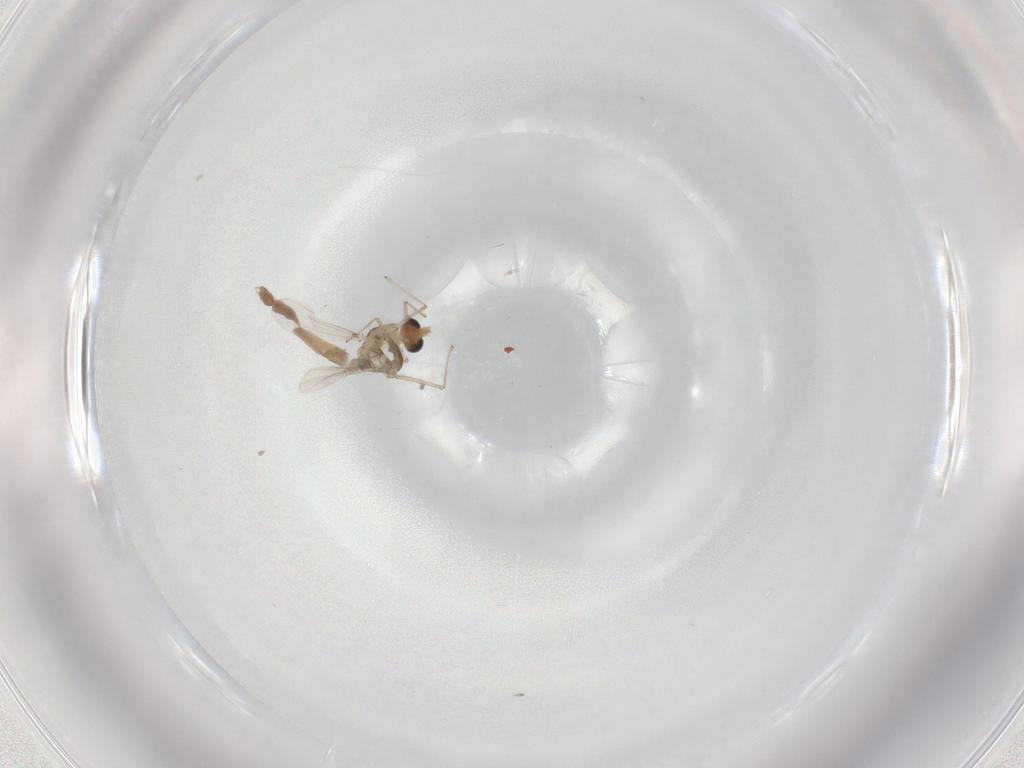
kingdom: Animalia
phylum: Arthropoda
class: Insecta
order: Diptera
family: Chironomidae
